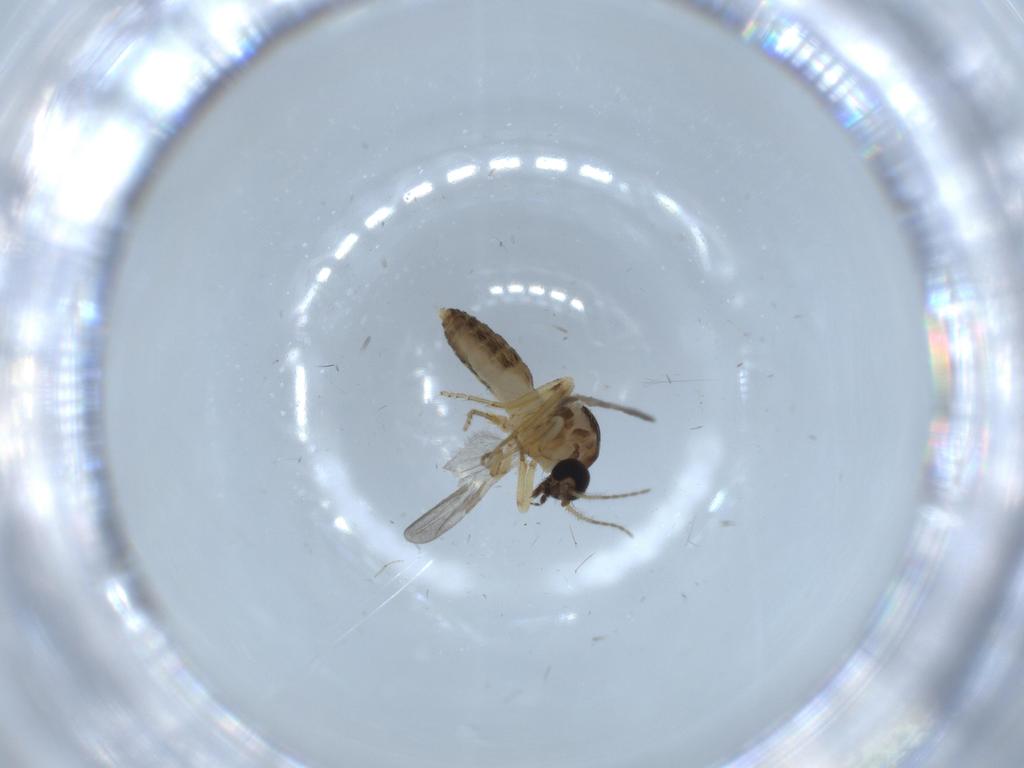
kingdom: Animalia
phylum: Arthropoda
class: Insecta
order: Diptera
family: Ceratopogonidae
